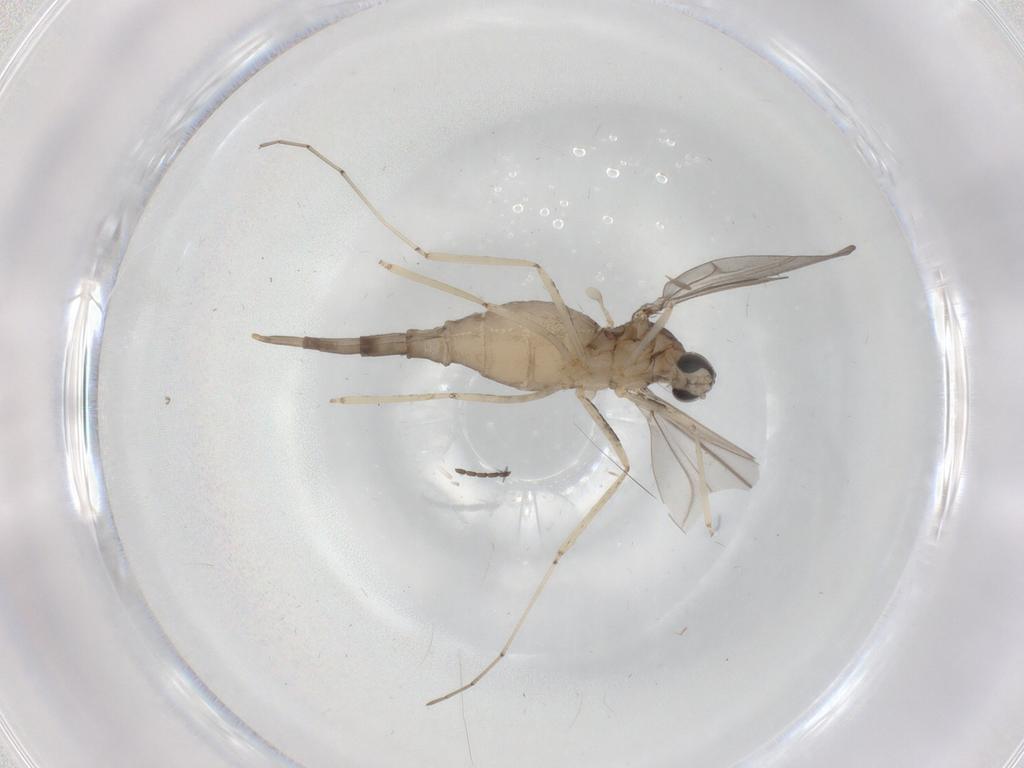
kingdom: Animalia
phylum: Arthropoda
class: Insecta
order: Diptera
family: Cecidomyiidae
